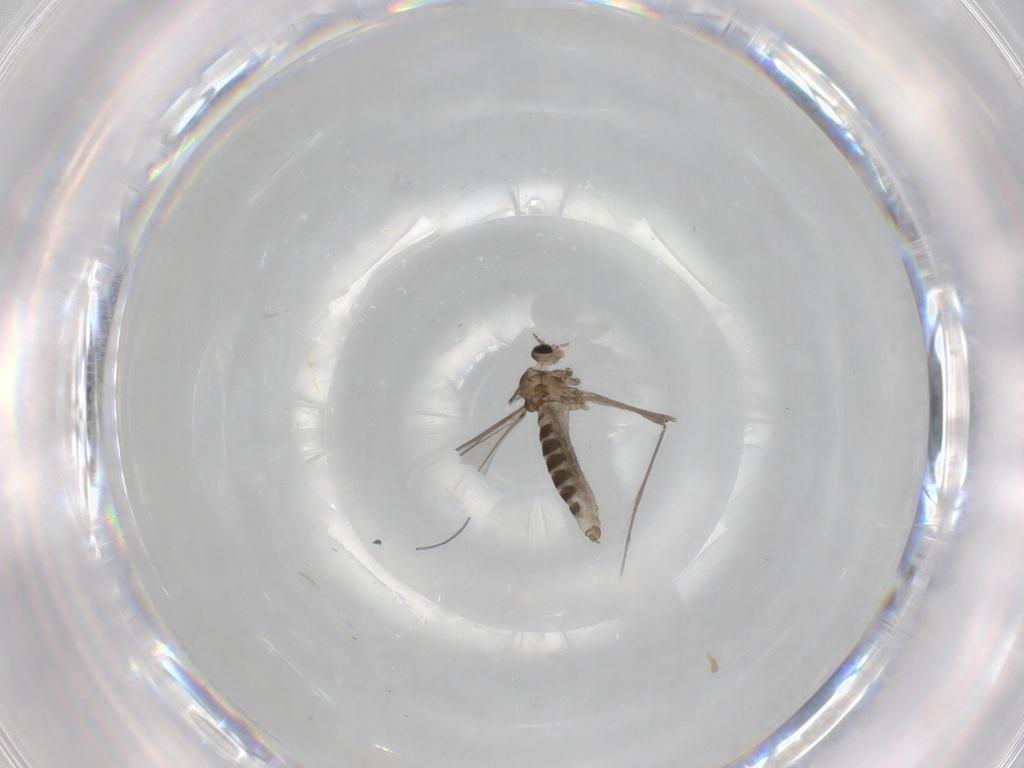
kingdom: Animalia
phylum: Arthropoda
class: Insecta
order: Diptera
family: Cecidomyiidae
